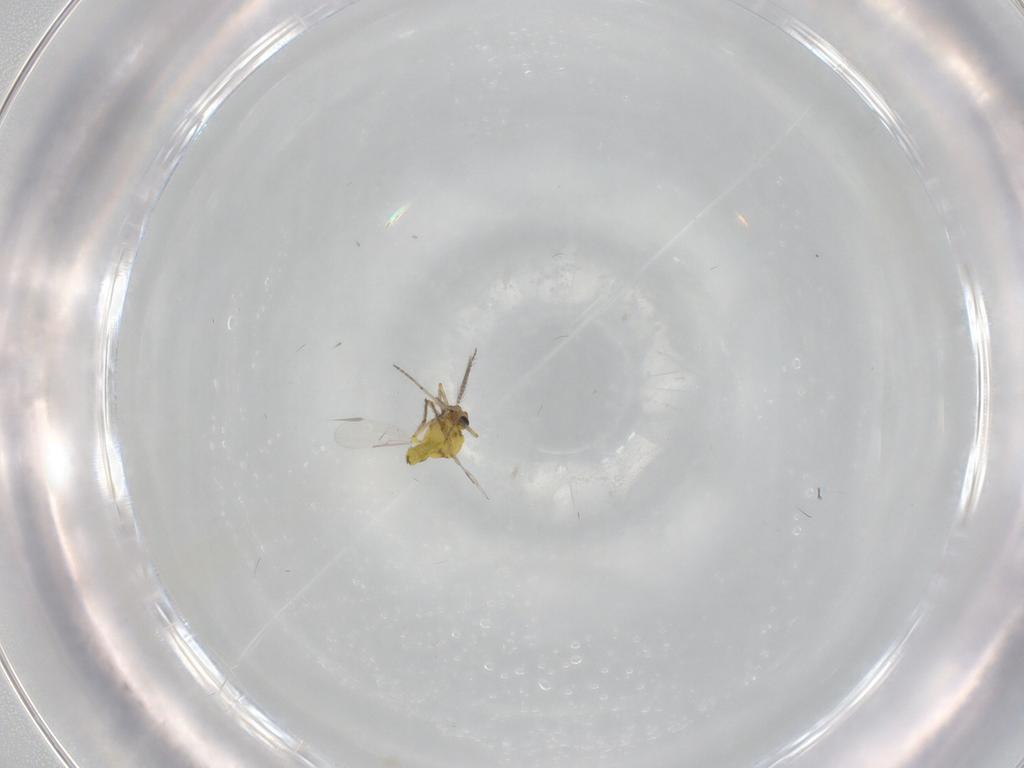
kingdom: Animalia
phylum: Arthropoda
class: Insecta
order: Diptera
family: Ceratopogonidae
